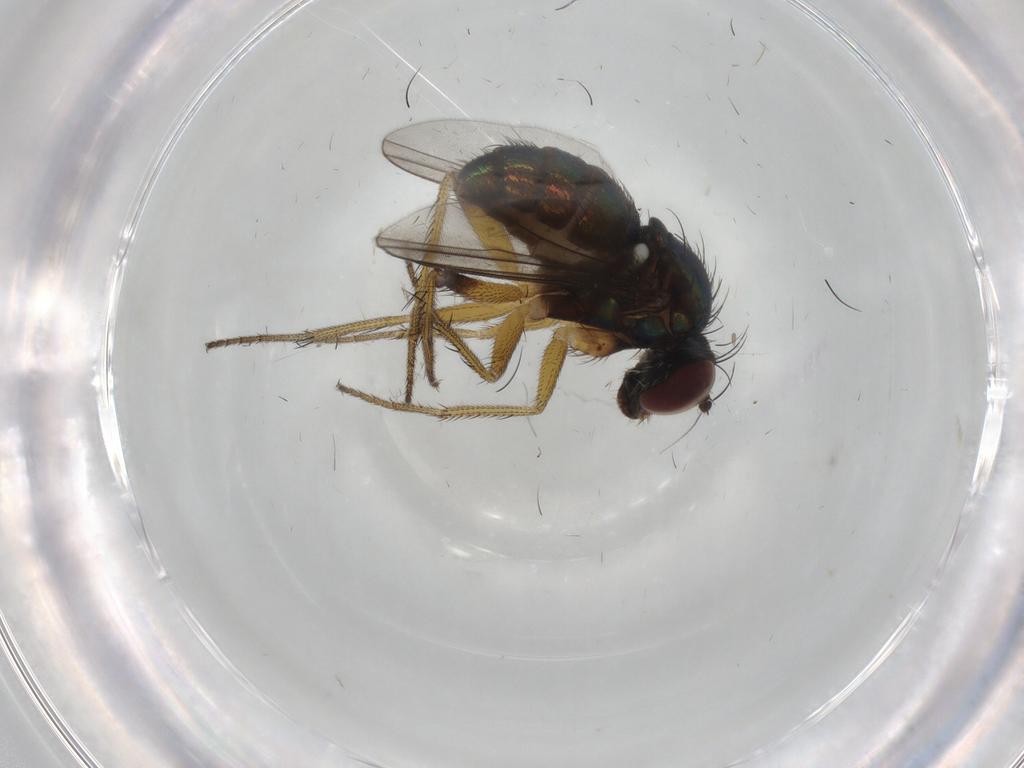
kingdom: Animalia
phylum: Arthropoda
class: Insecta
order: Diptera
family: Dolichopodidae
